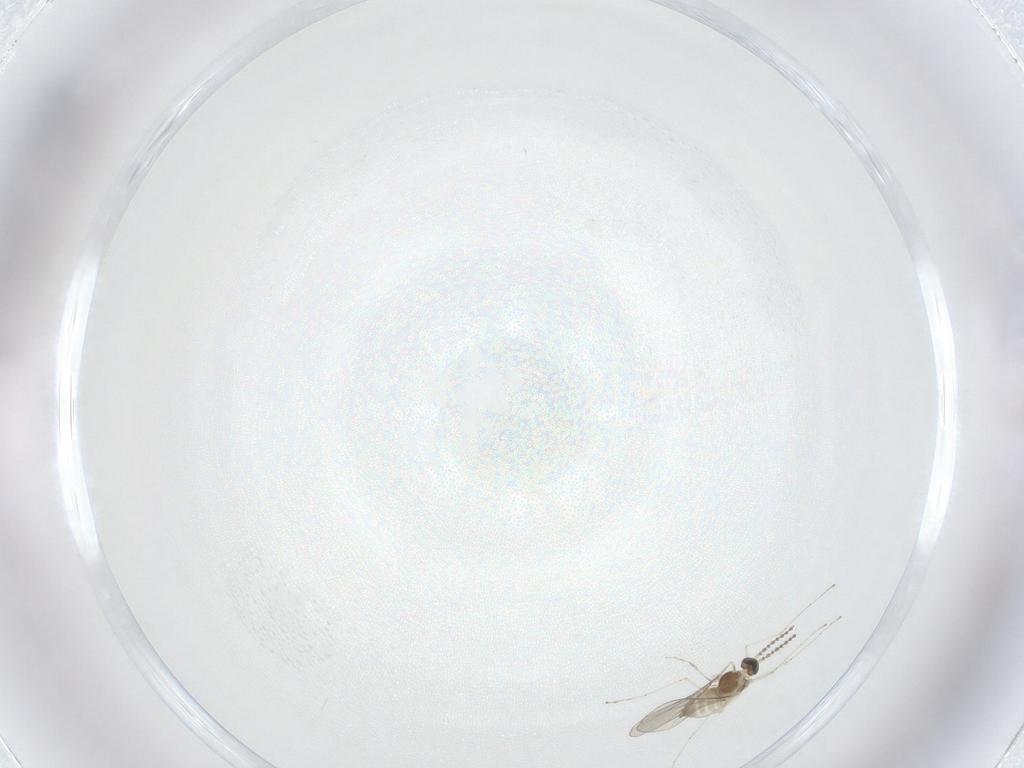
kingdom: Animalia
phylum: Arthropoda
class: Insecta
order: Diptera
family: Cecidomyiidae
